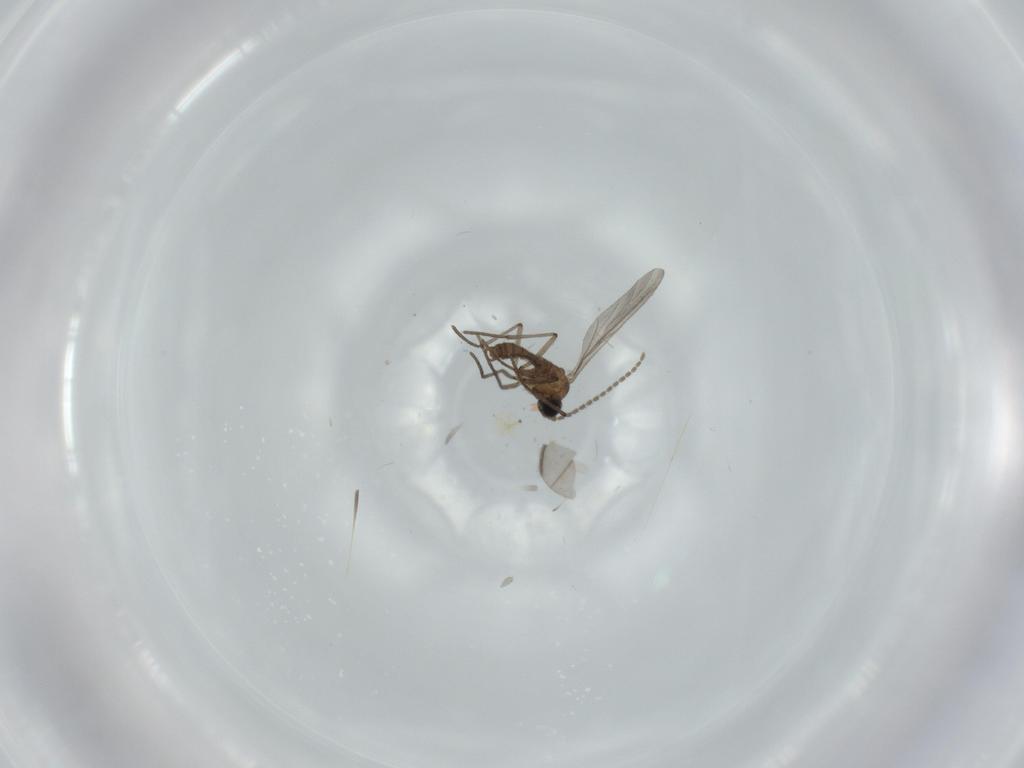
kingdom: Animalia
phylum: Arthropoda
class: Insecta
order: Diptera
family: Sciaridae
